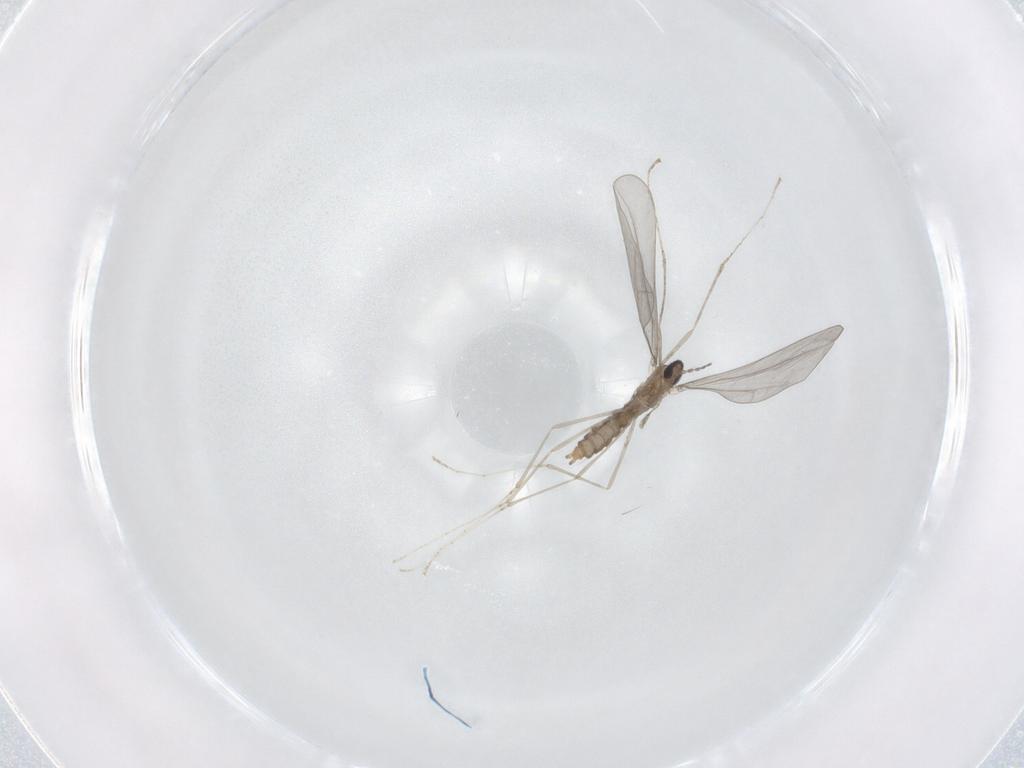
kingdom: Animalia
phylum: Arthropoda
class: Insecta
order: Diptera
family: Cecidomyiidae
